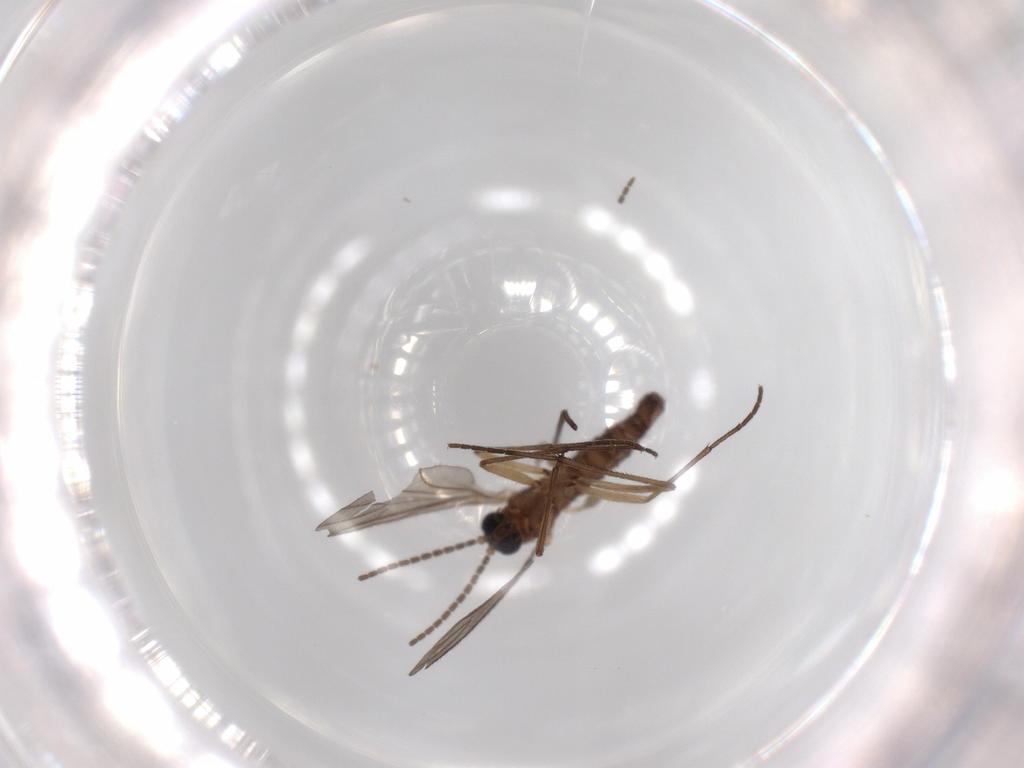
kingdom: Animalia
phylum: Arthropoda
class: Insecta
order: Diptera
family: Sciaridae
